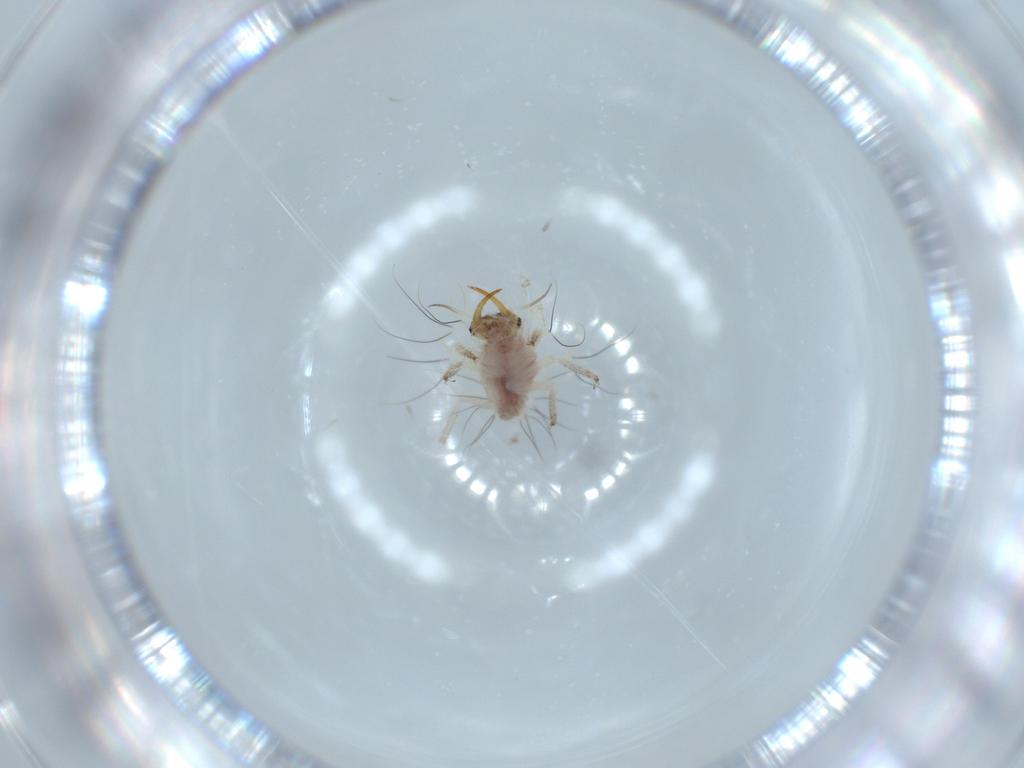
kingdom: Animalia
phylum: Arthropoda
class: Insecta
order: Neuroptera
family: Chrysopidae
